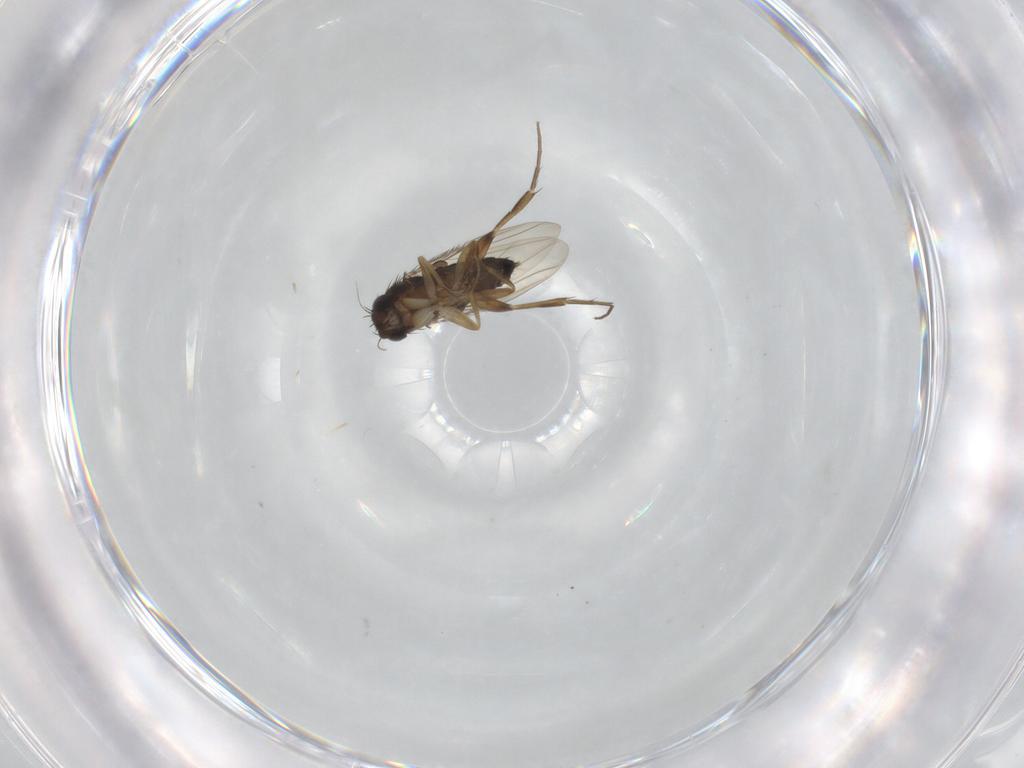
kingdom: Animalia
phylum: Arthropoda
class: Insecta
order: Diptera
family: Phoridae
